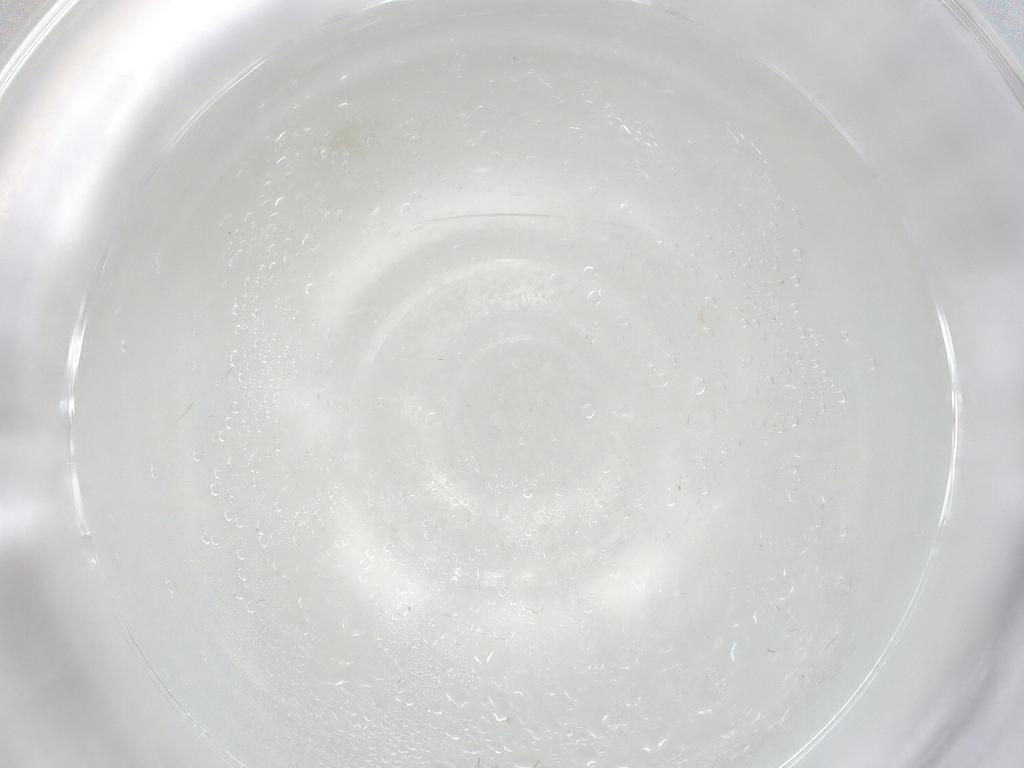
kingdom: Animalia
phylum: Arthropoda
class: Insecta
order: Diptera
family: Cecidomyiidae
